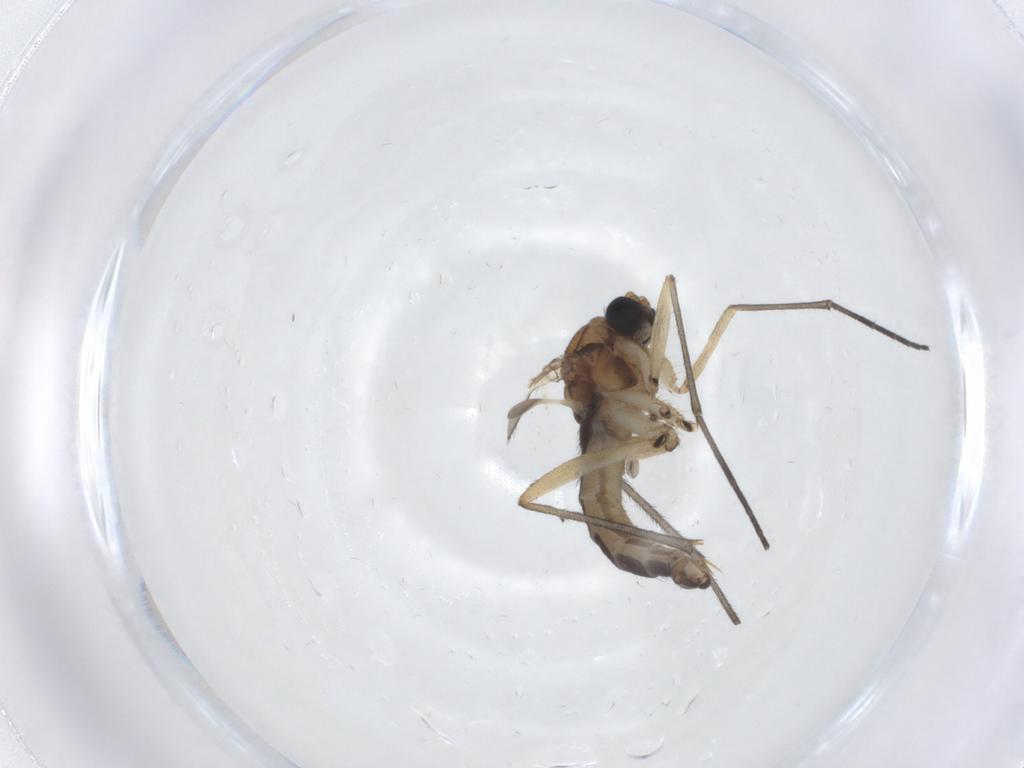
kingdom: Animalia
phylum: Arthropoda
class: Insecta
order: Diptera
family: Sciaridae
